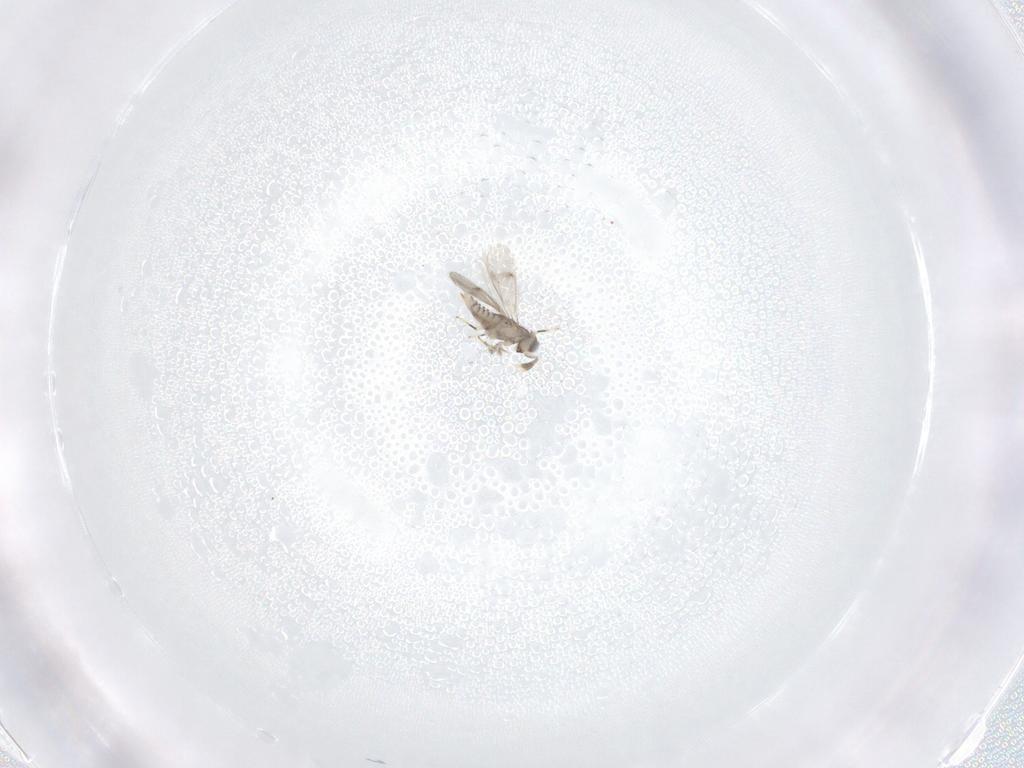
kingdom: Animalia
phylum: Arthropoda
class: Insecta
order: Hymenoptera
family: Aphelinidae
